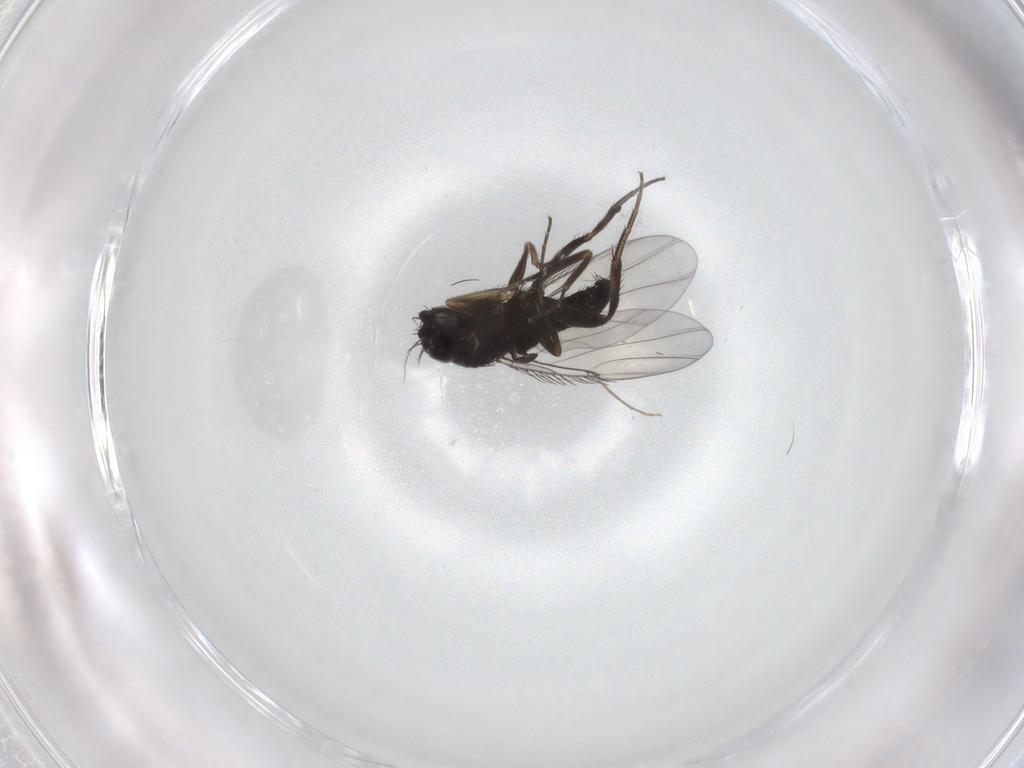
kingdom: Animalia
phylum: Arthropoda
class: Insecta
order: Diptera
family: Phoridae
